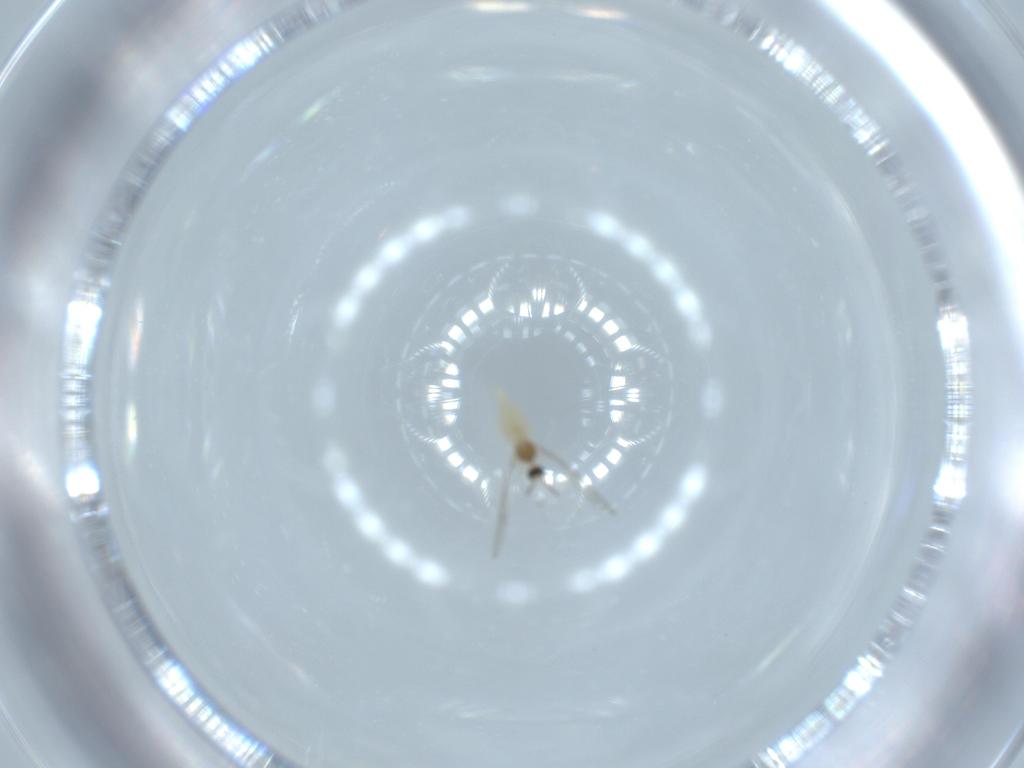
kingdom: Animalia
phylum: Arthropoda
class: Insecta
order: Diptera
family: Cecidomyiidae
